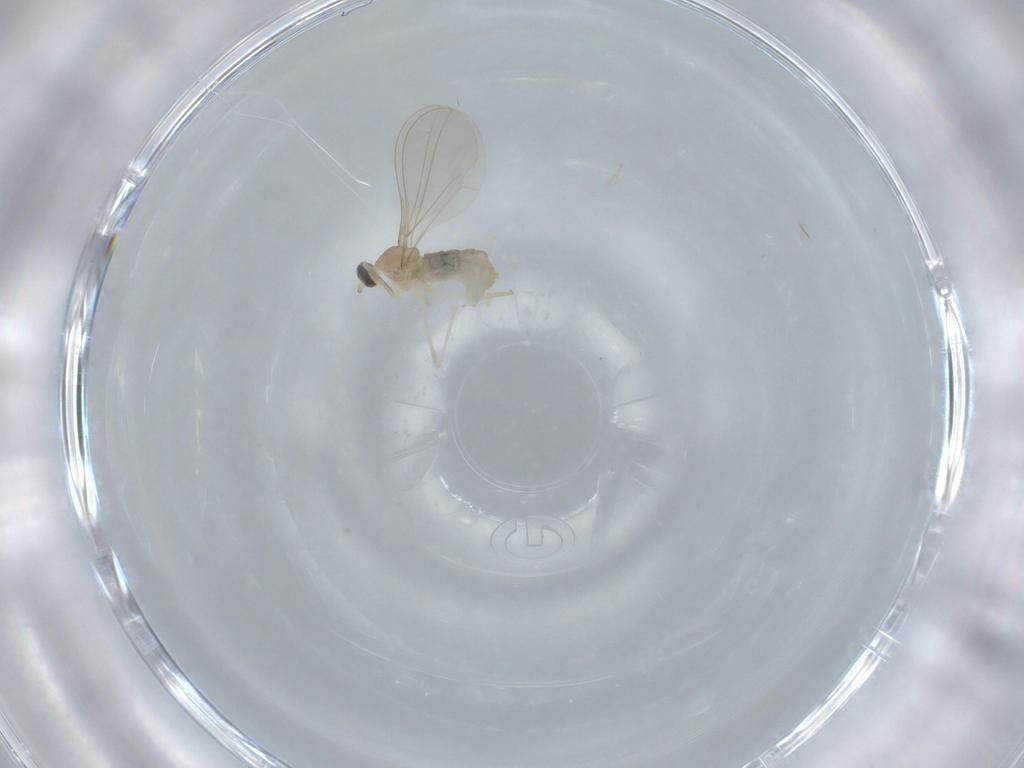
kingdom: Animalia
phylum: Arthropoda
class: Insecta
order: Diptera
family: Cecidomyiidae
